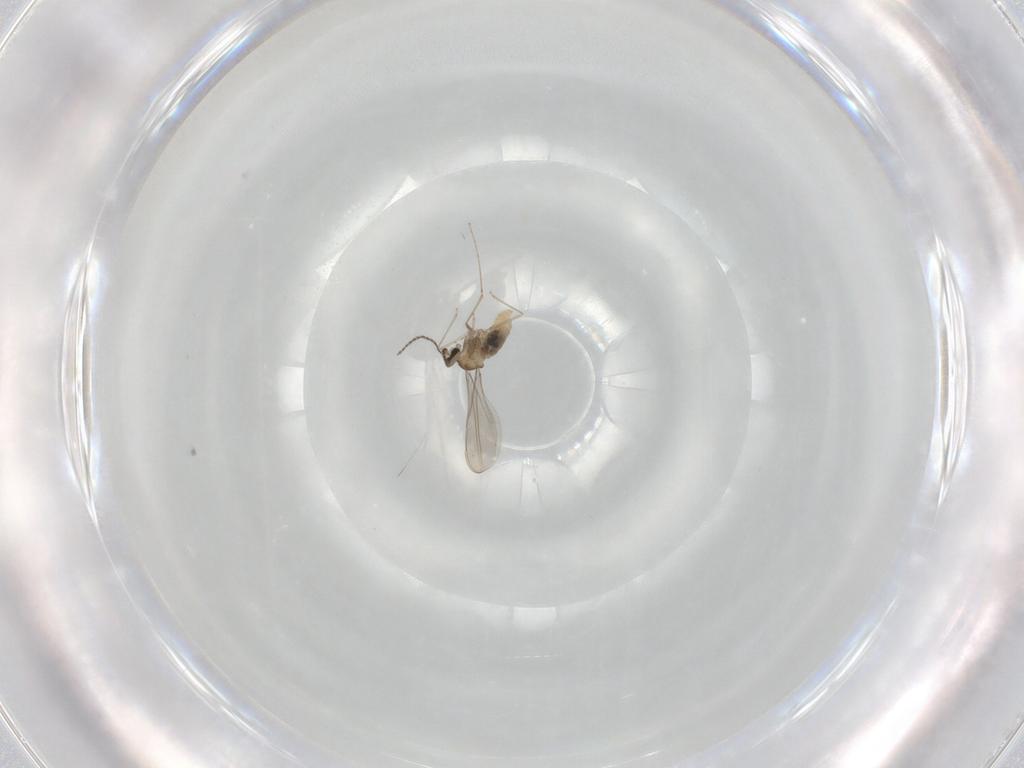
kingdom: Animalia
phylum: Arthropoda
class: Insecta
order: Diptera
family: Cecidomyiidae
